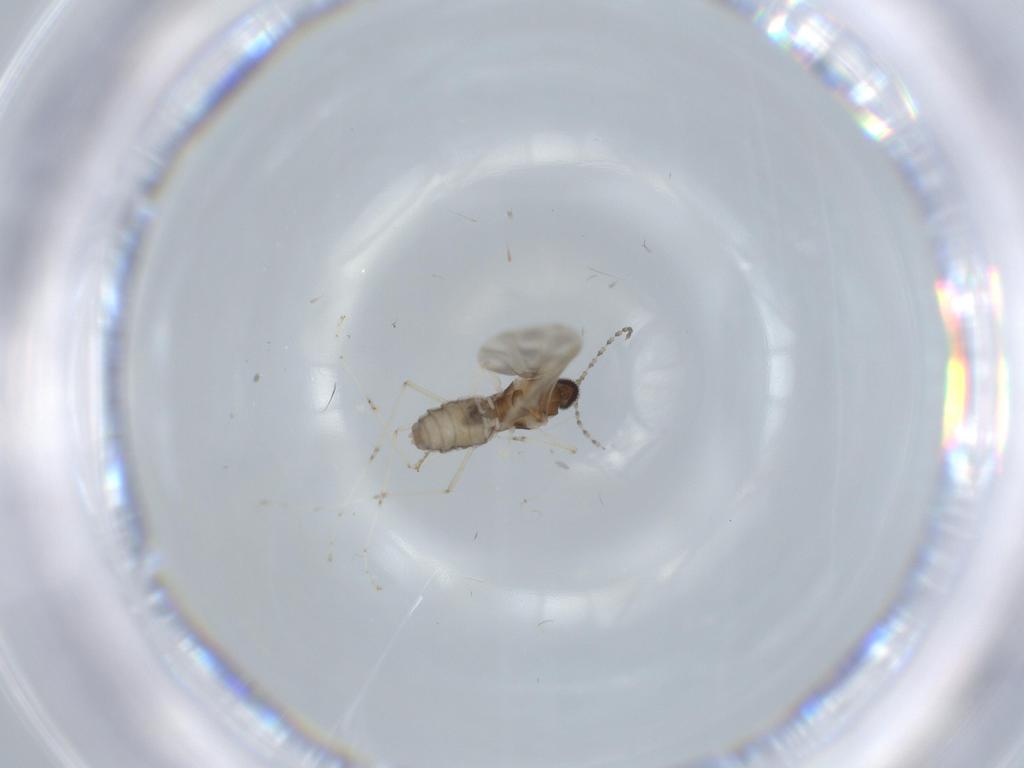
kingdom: Animalia
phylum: Arthropoda
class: Insecta
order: Diptera
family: Cecidomyiidae
